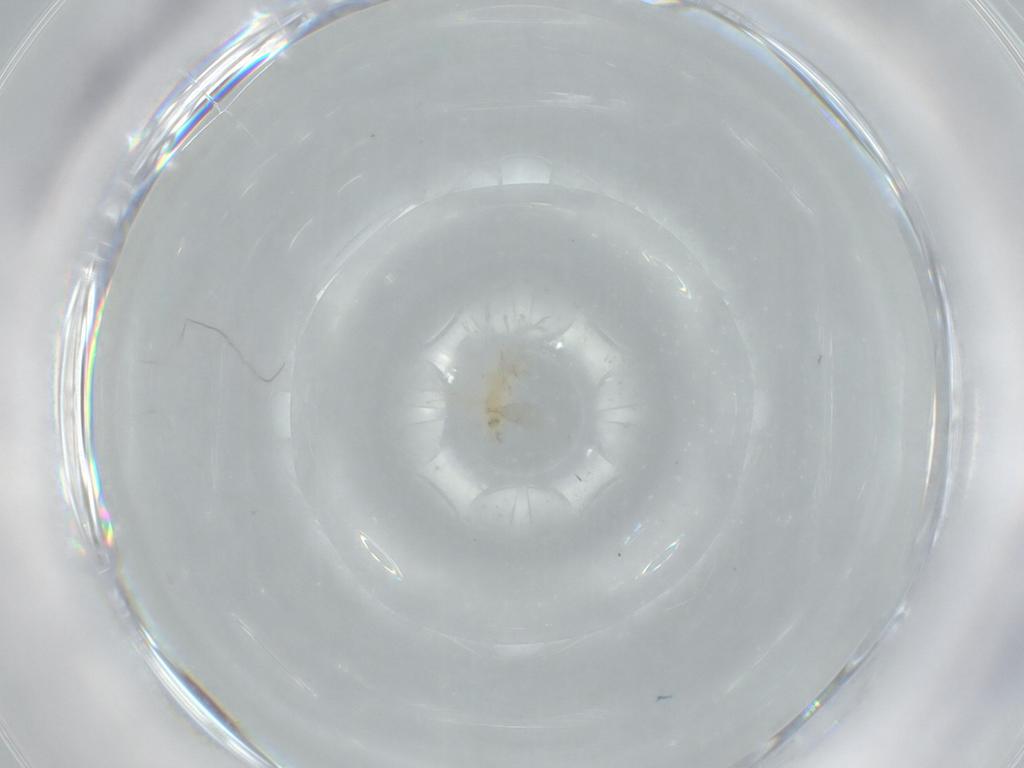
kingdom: Animalia
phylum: Arthropoda
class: Insecta
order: Hymenoptera
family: Aphelinidae
